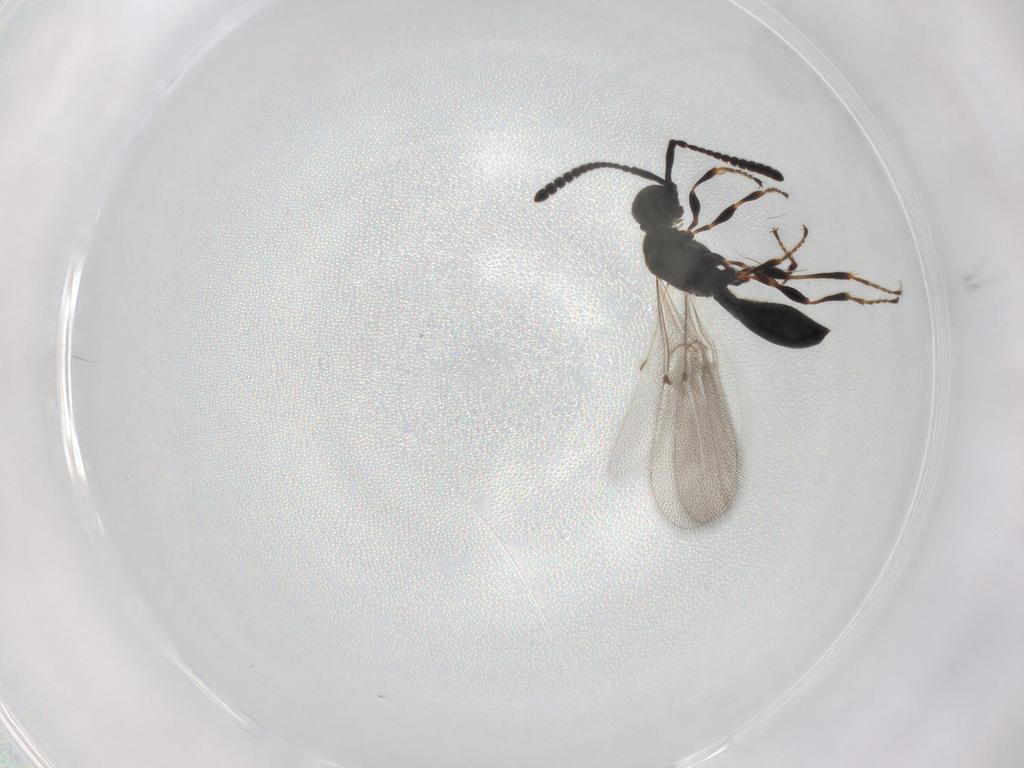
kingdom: Animalia
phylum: Arthropoda
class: Insecta
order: Hymenoptera
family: Diapriidae
